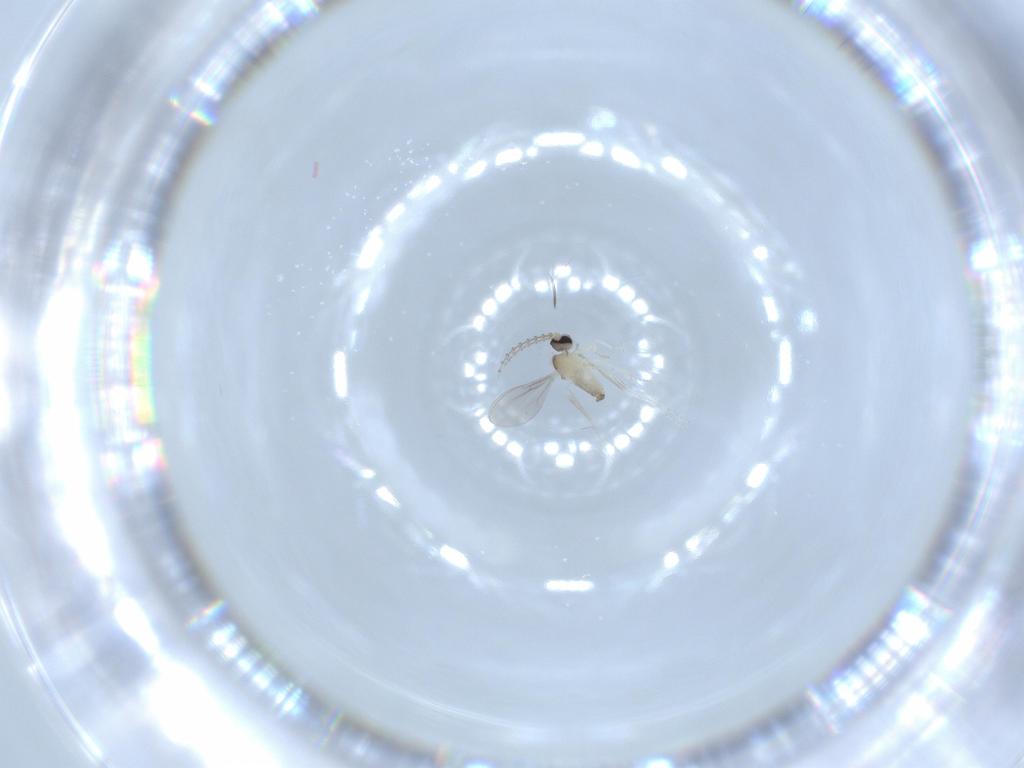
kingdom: Animalia
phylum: Arthropoda
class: Insecta
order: Diptera
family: Cecidomyiidae
